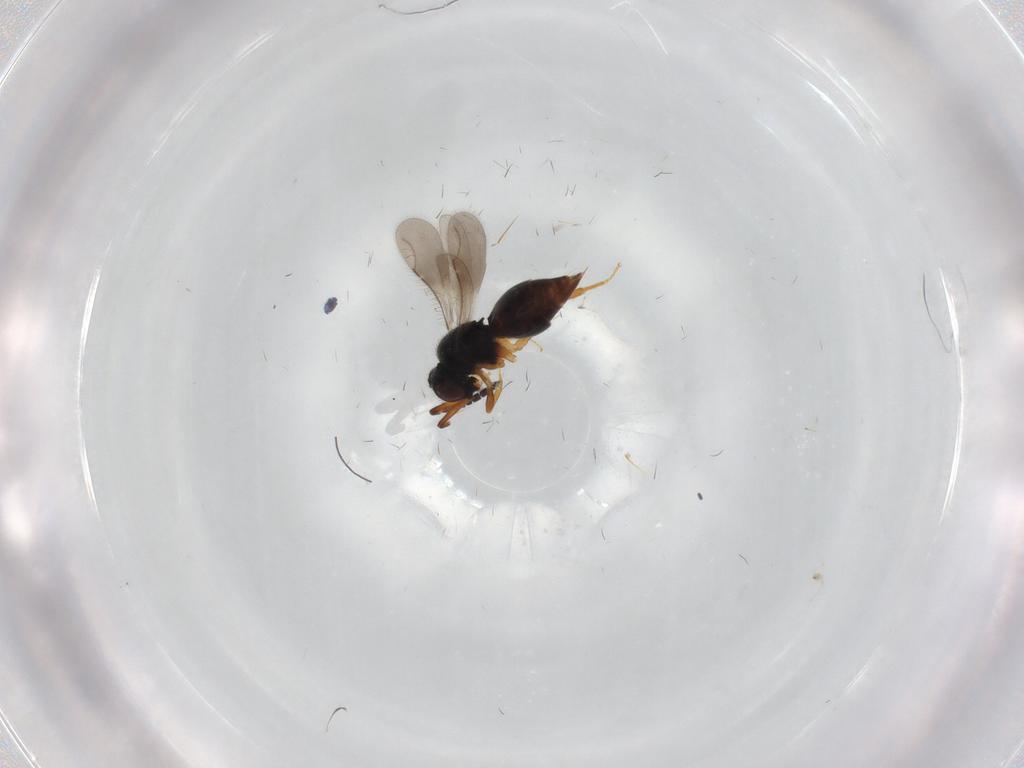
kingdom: Animalia
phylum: Arthropoda
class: Insecta
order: Hymenoptera
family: Ceraphronidae
